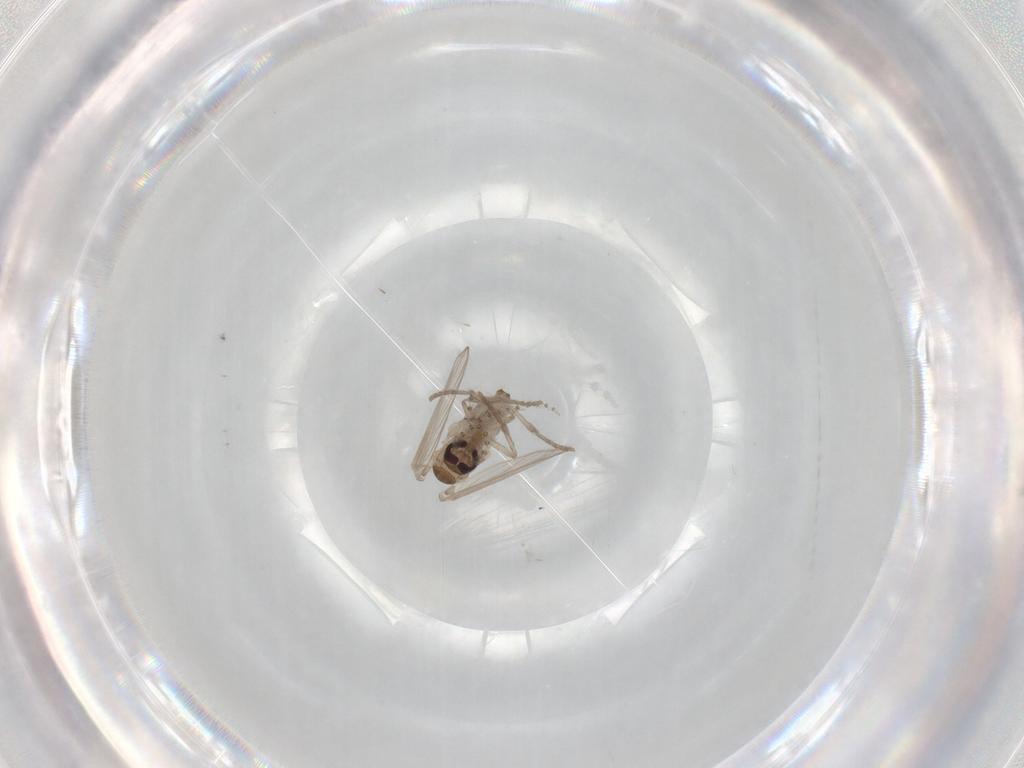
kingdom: Animalia
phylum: Arthropoda
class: Insecta
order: Diptera
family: Psychodidae
